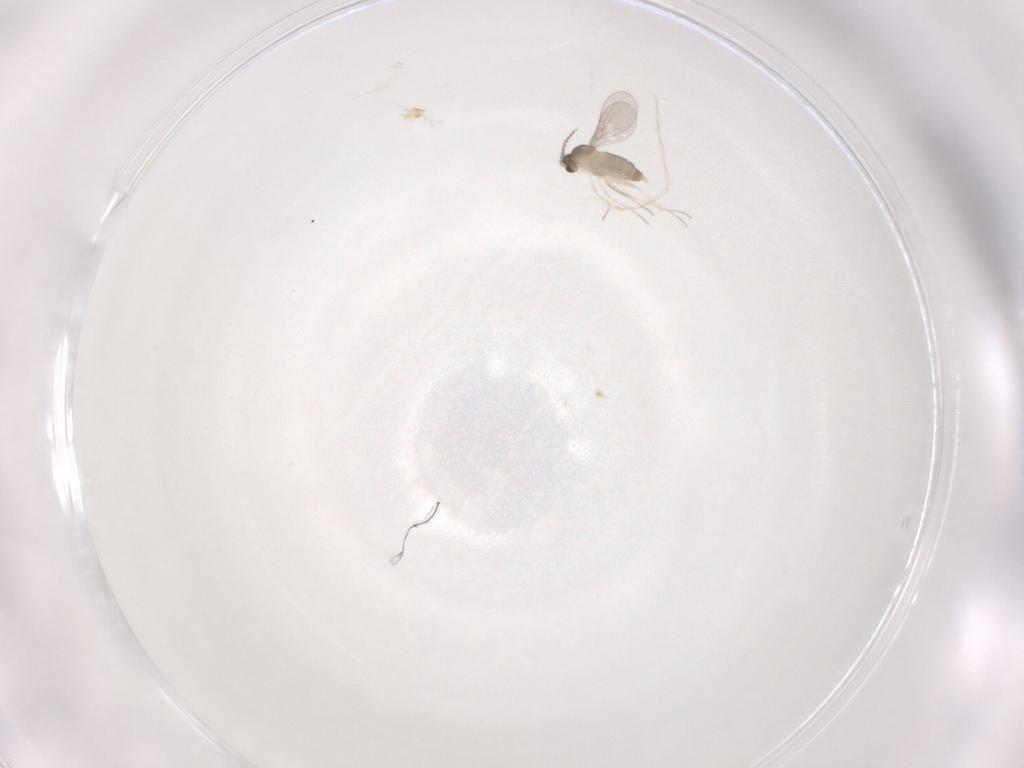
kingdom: Animalia
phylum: Arthropoda
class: Insecta
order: Diptera
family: Cecidomyiidae
